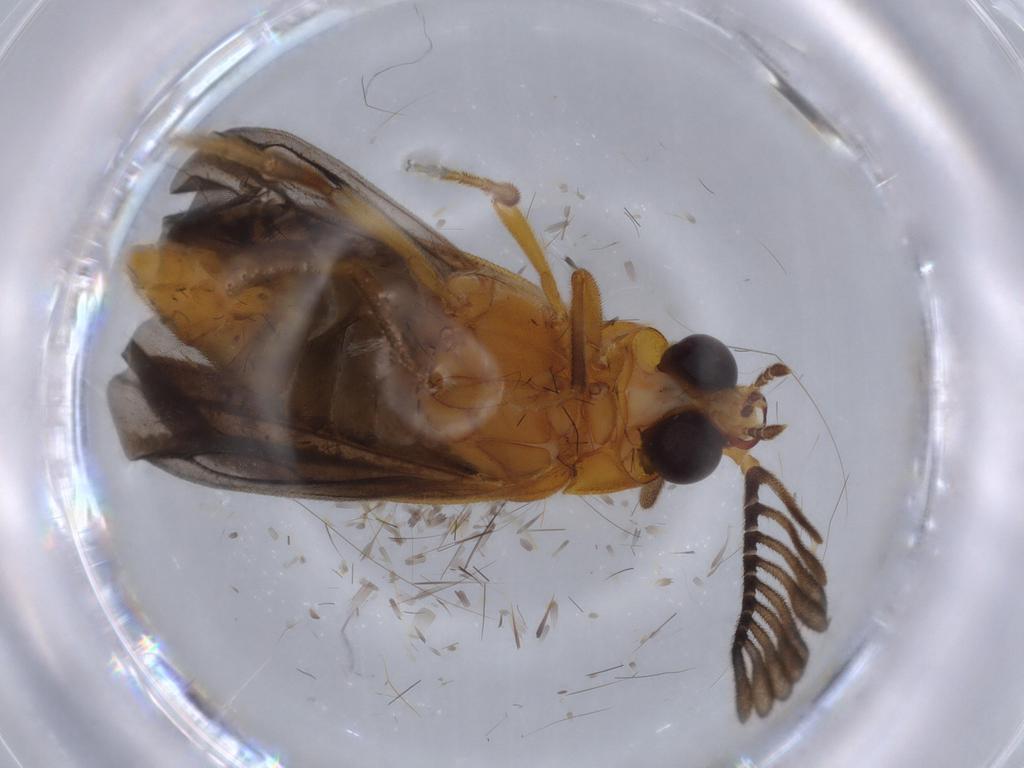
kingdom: Animalia
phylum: Arthropoda
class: Insecta
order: Coleoptera
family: Lampyridae
